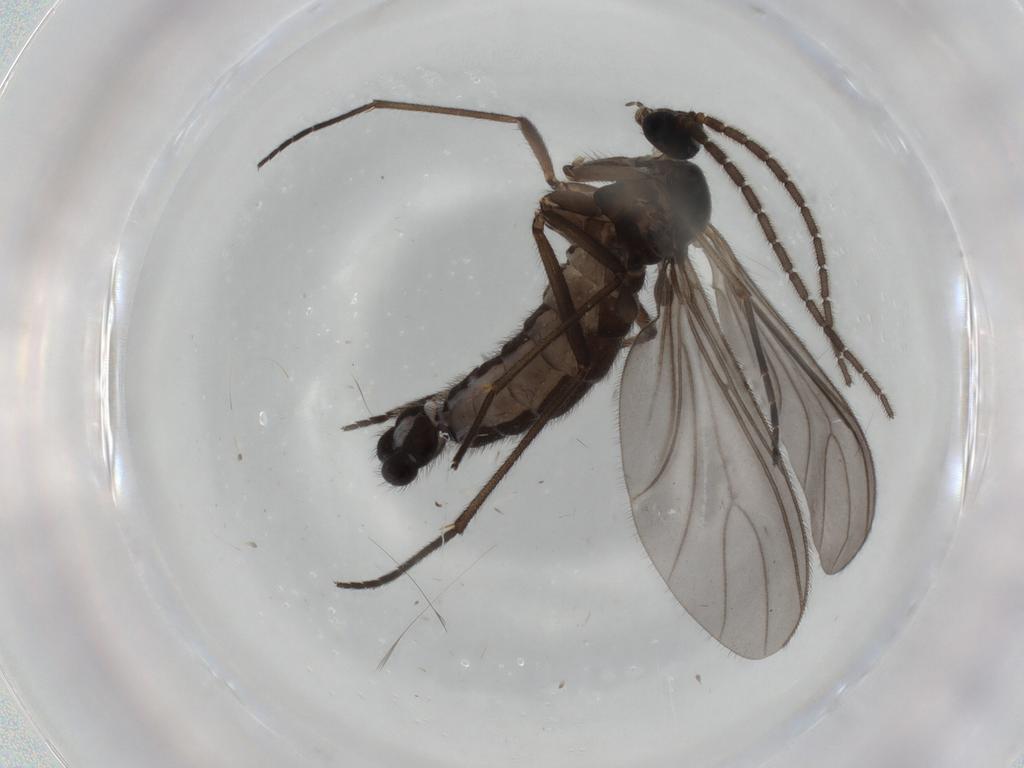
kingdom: Animalia
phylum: Arthropoda
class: Insecta
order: Diptera
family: Sciaridae
